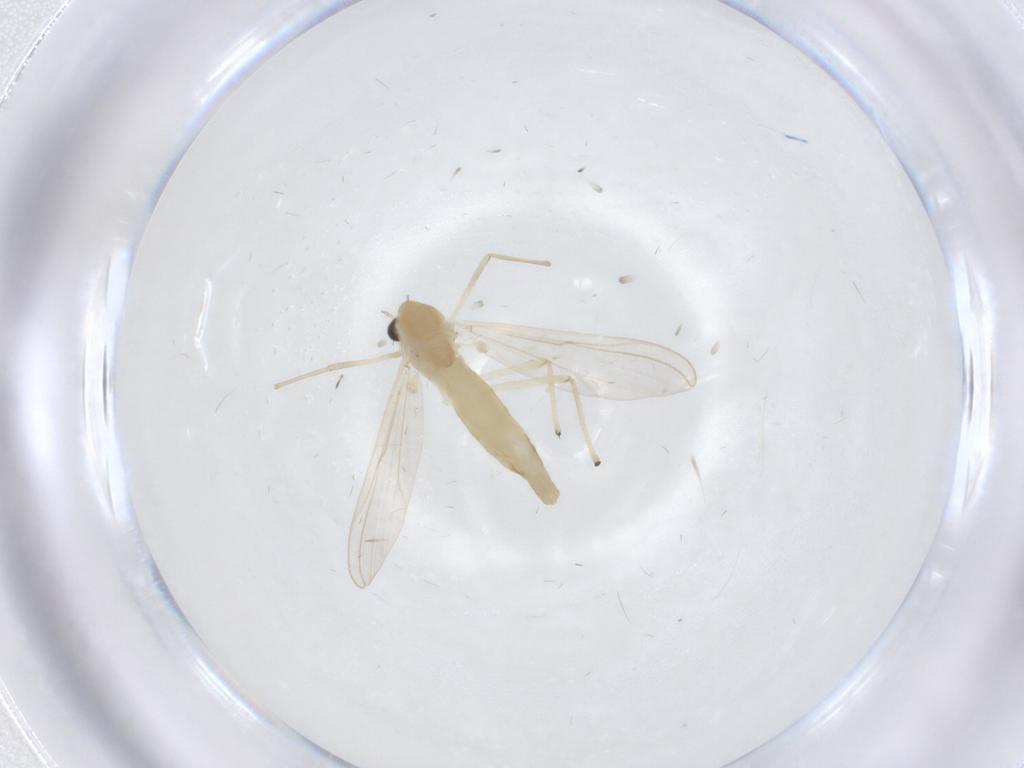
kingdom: Animalia
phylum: Arthropoda
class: Insecta
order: Diptera
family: Chironomidae
